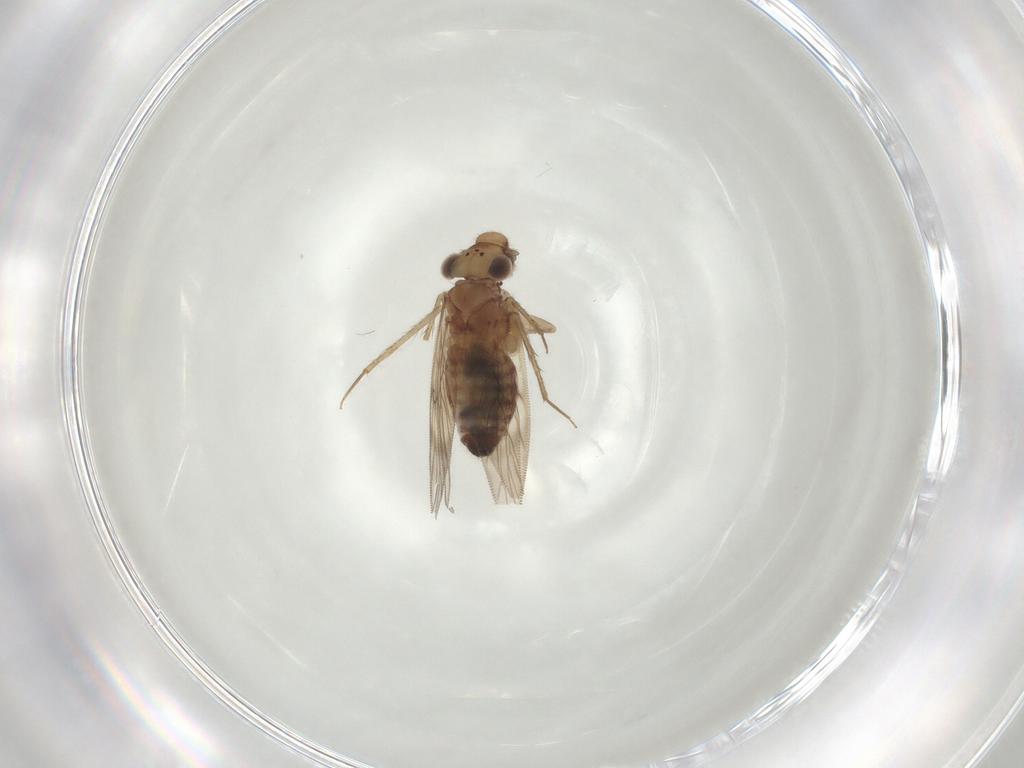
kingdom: Animalia
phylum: Arthropoda
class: Insecta
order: Psocodea
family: Lepidopsocidae
